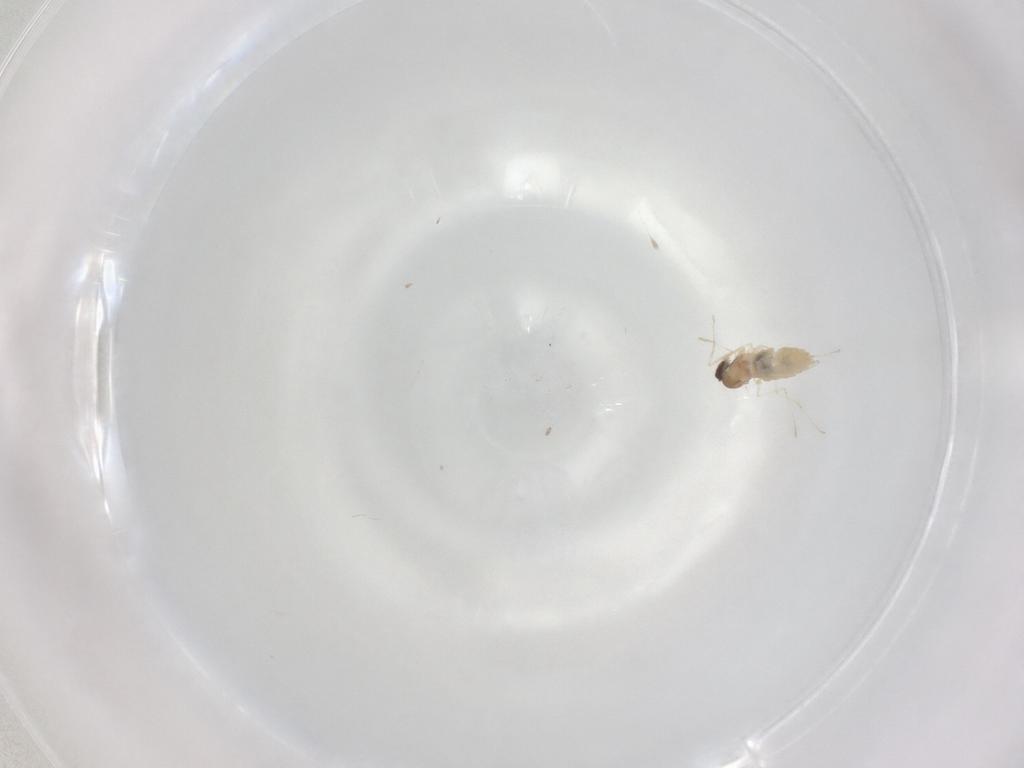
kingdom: Animalia
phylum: Arthropoda
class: Insecta
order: Diptera
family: Cecidomyiidae
